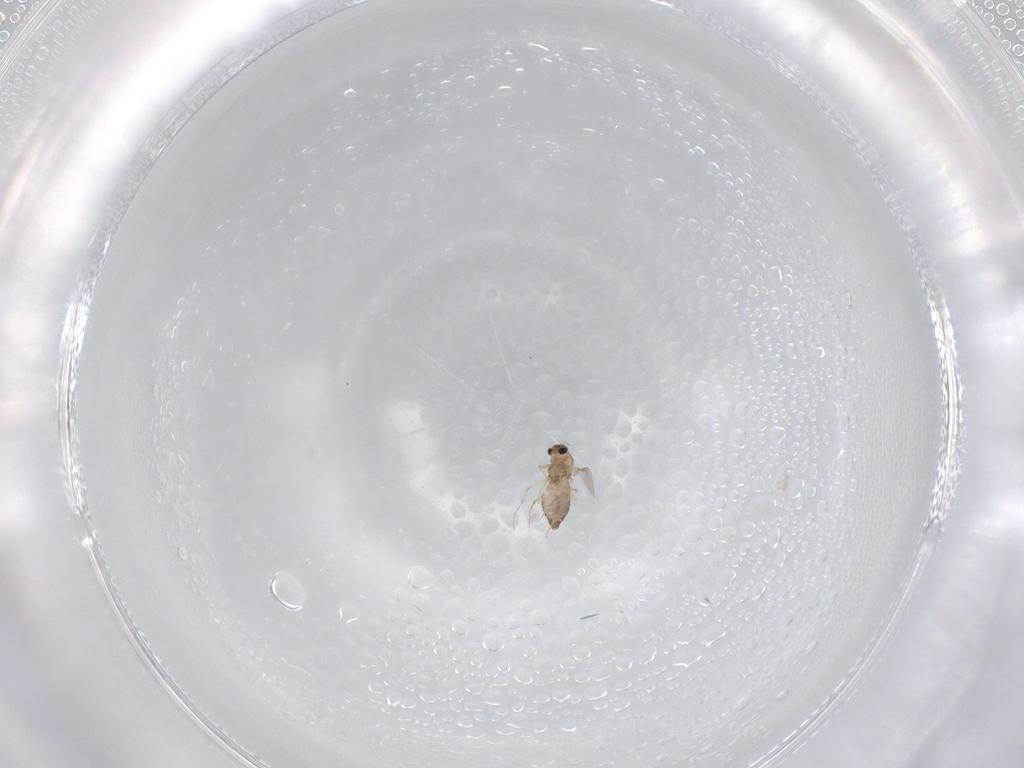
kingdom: Animalia
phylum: Arthropoda
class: Insecta
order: Diptera
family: Chironomidae
